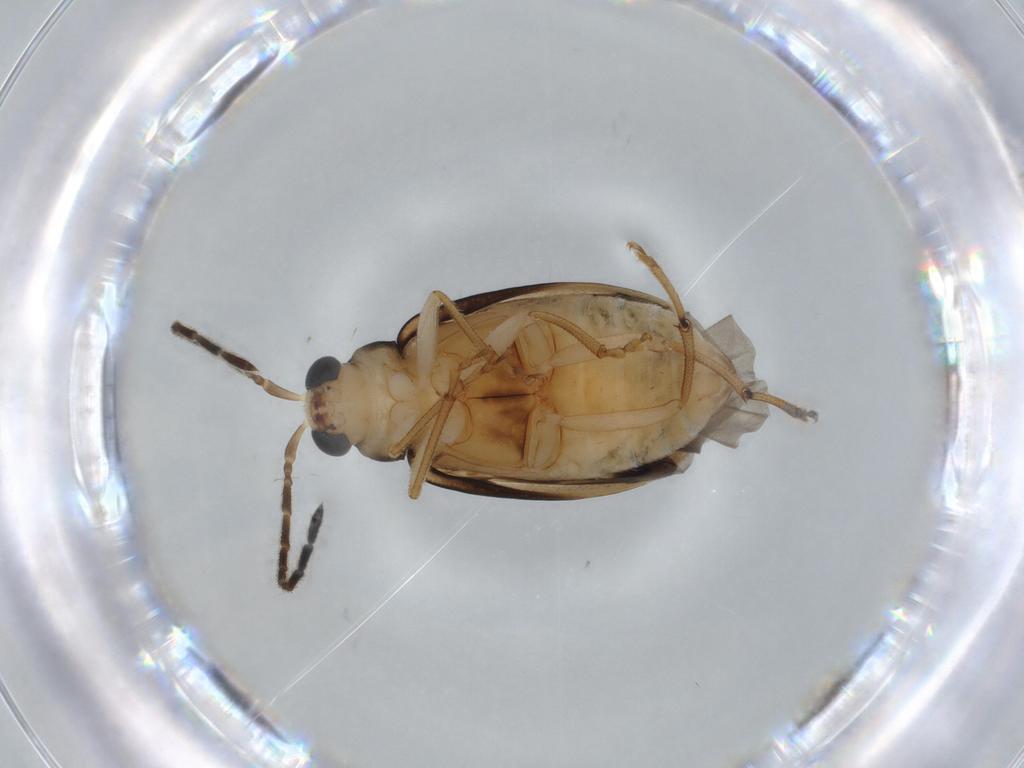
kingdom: Animalia
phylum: Arthropoda
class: Insecta
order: Coleoptera
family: Chrysomelidae
